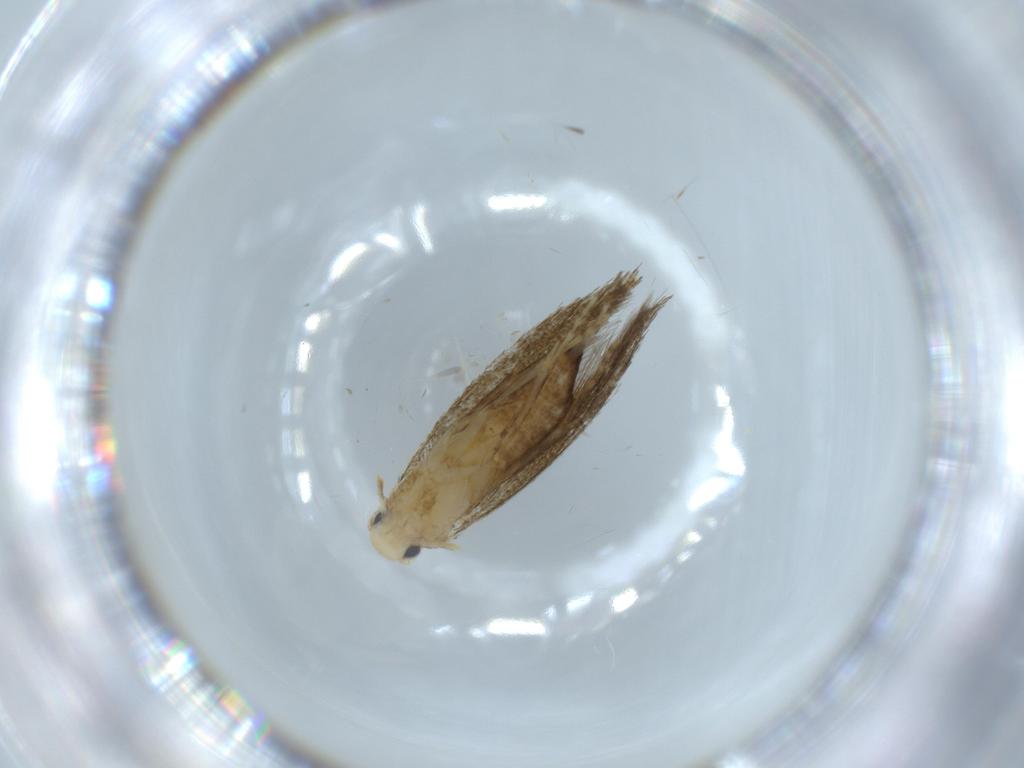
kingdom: Animalia
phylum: Arthropoda
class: Insecta
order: Lepidoptera
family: Tineidae
